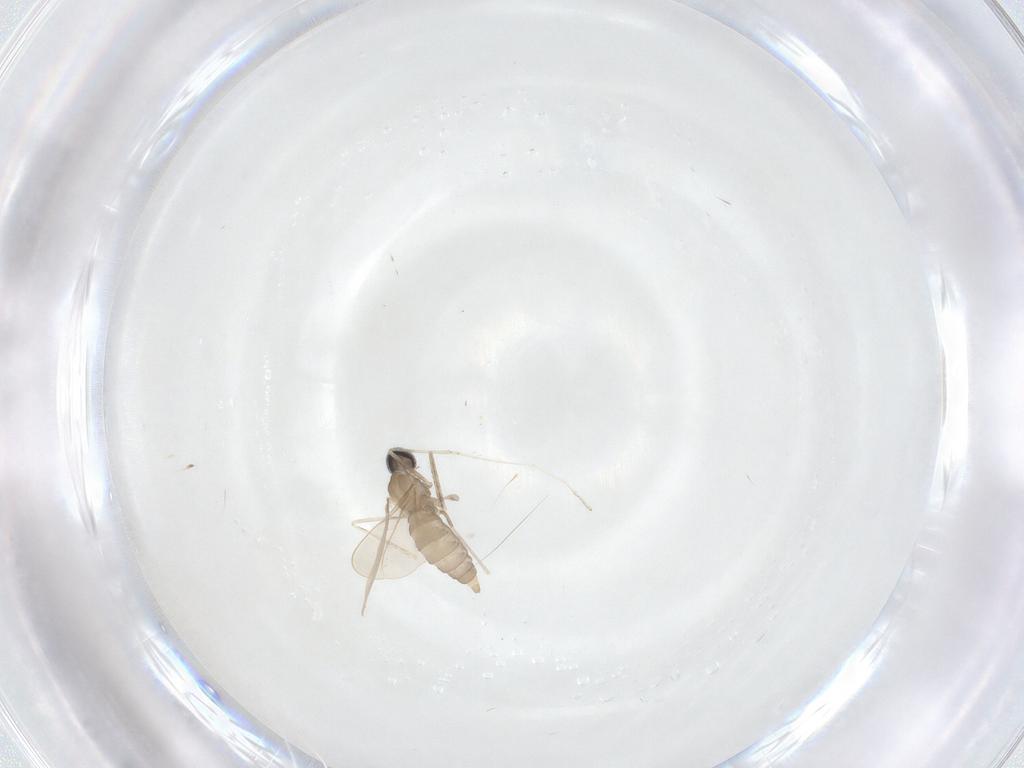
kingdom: Animalia
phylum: Arthropoda
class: Insecta
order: Diptera
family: Cecidomyiidae
